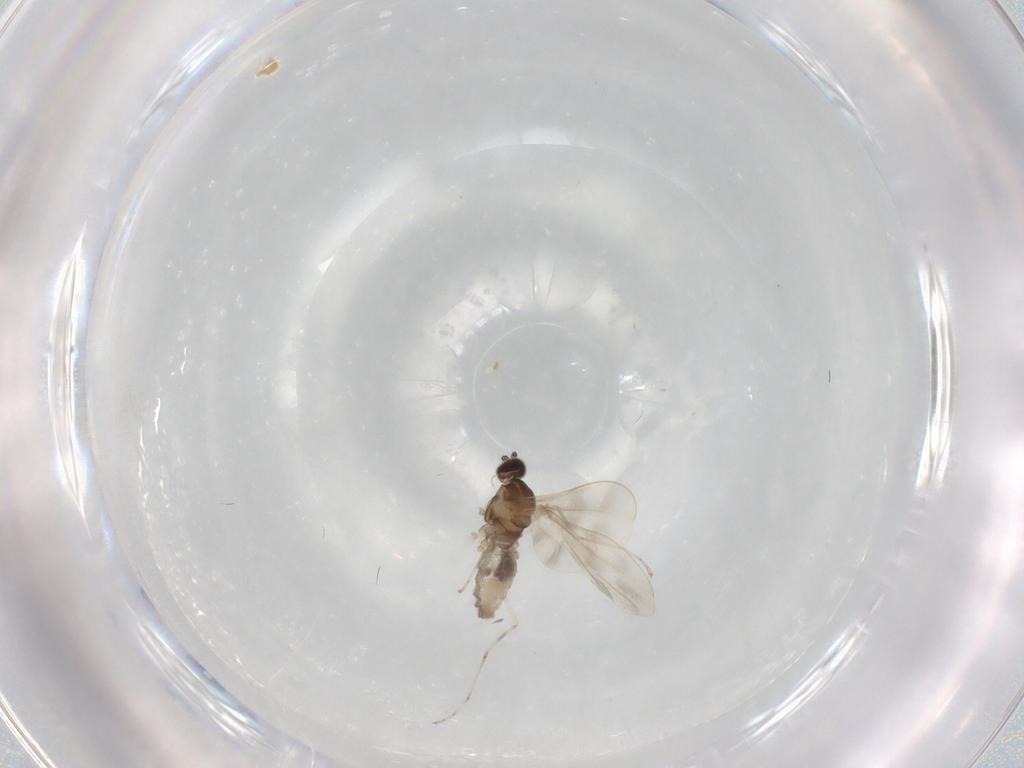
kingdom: Animalia
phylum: Arthropoda
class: Insecta
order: Diptera
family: Cecidomyiidae
